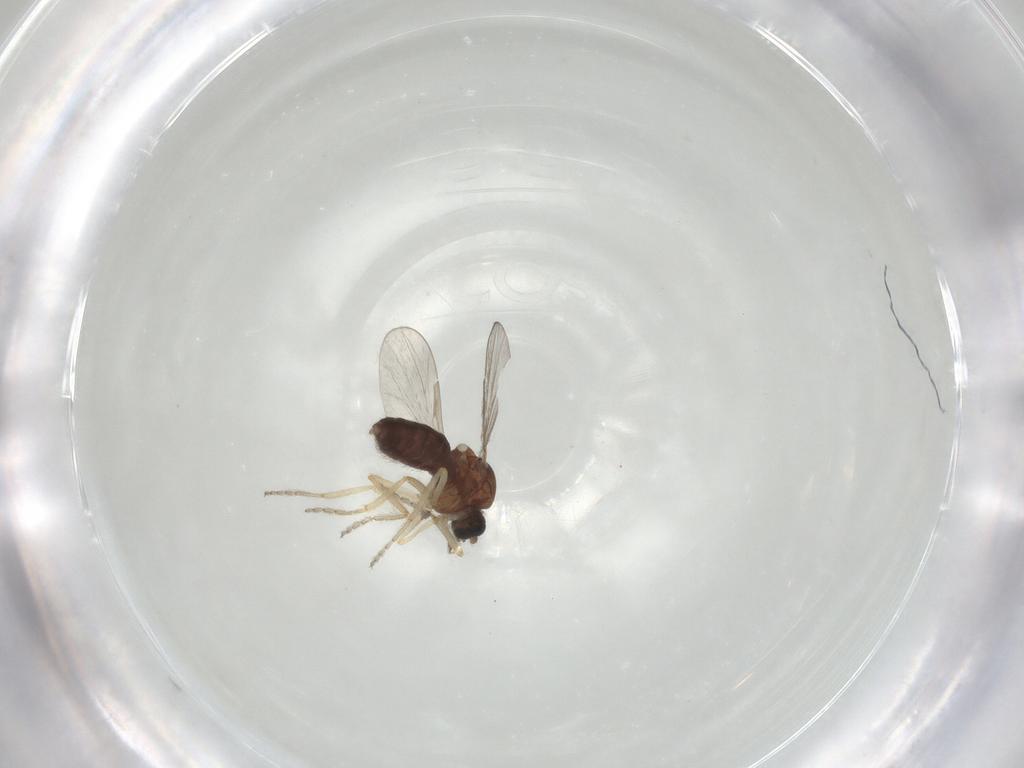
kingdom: Animalia
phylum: Arthropoda
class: Insecta
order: Diptera
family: Ceratopogonidae
